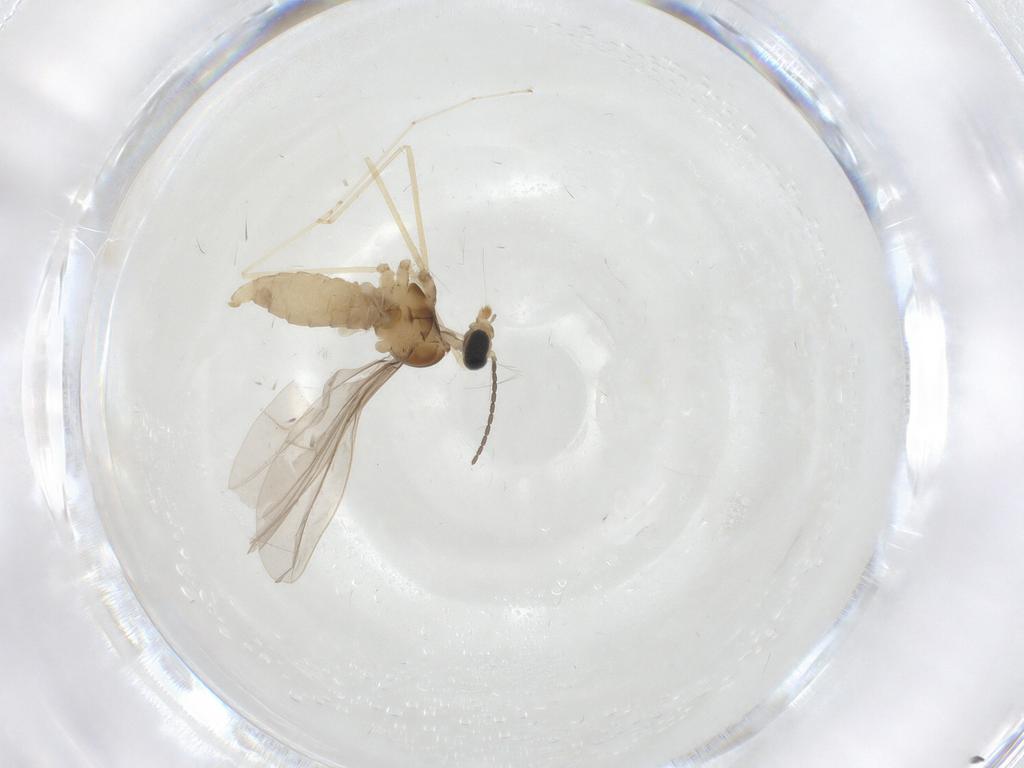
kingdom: Animalia
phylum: Arthropoda
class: Insecta
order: Diptera
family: Cecidomyiidae
